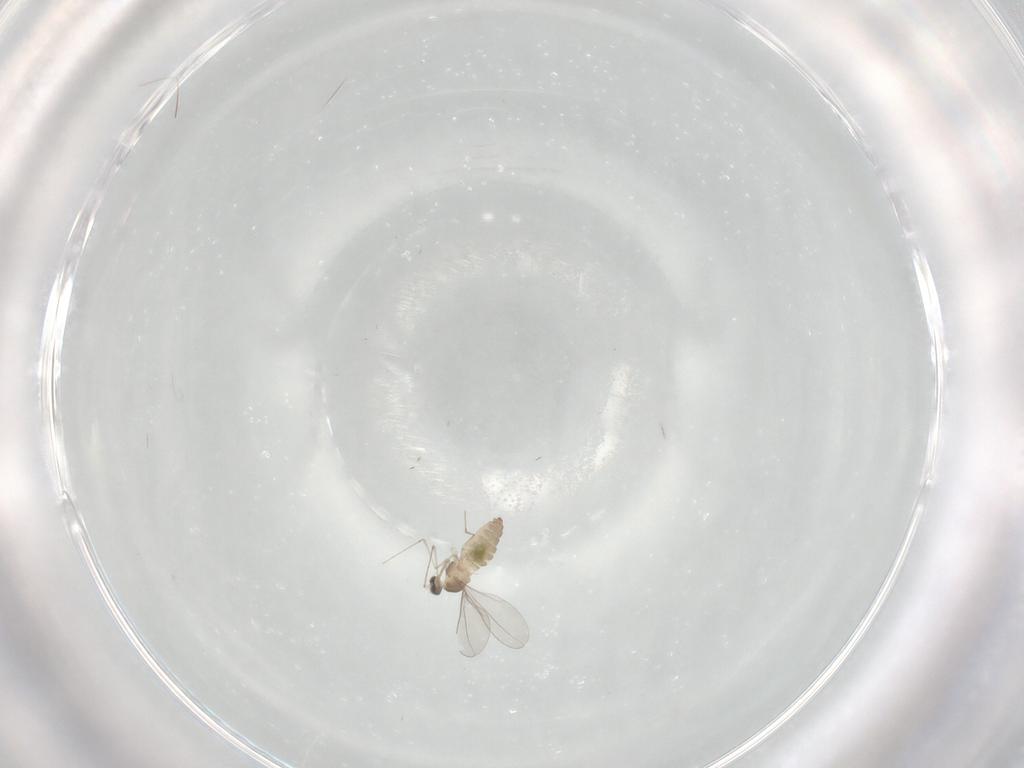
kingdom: Animalia
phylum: Arthropoda
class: Insecta
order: Diptera
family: Cecidomyiidae
